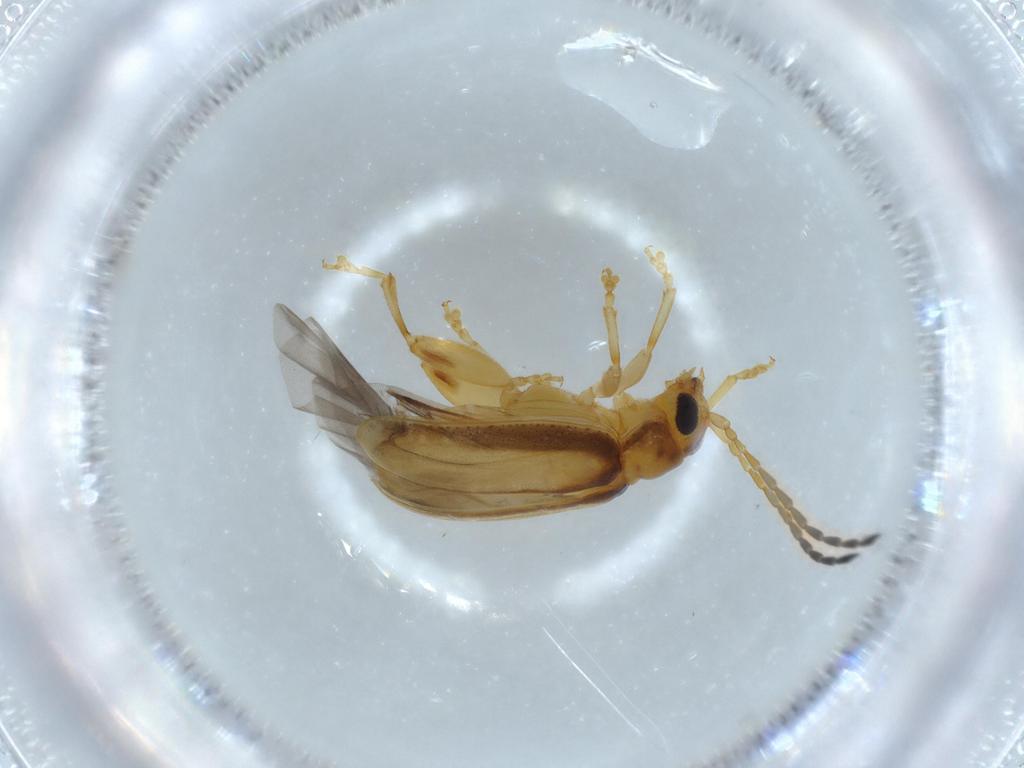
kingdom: Animalia
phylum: Arthropoda
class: Insecta
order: Coleoptera
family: Chrysomelidae
